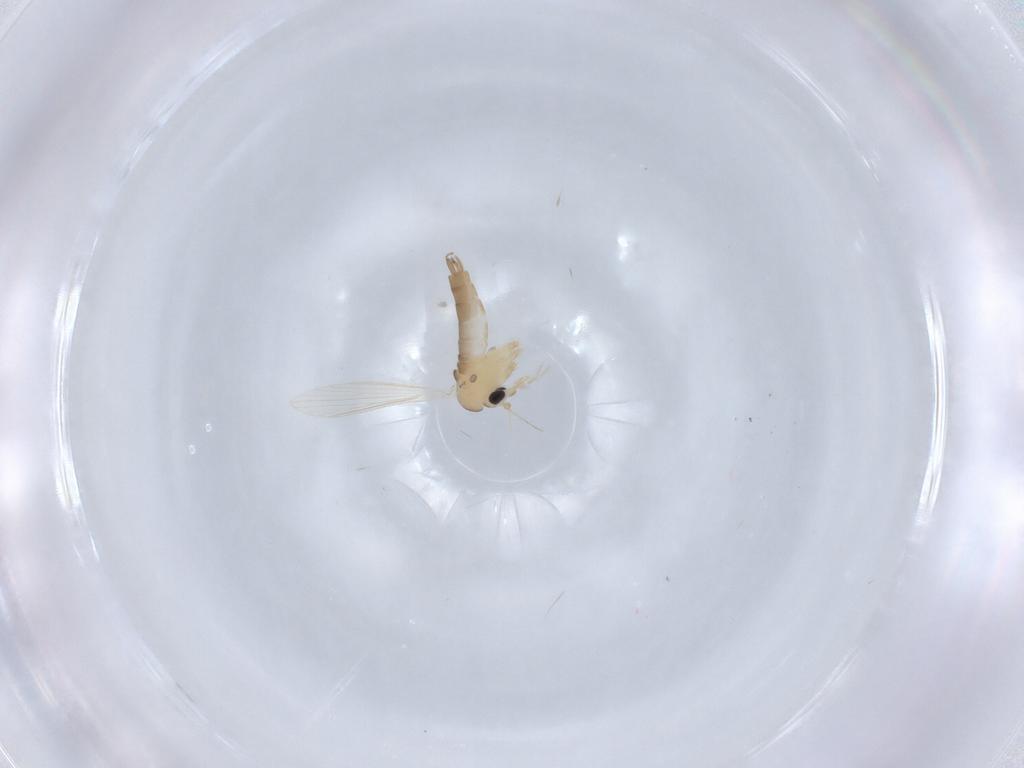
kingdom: Animalia
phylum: Arthropoda
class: Insecta
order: Diptera
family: Psychodidae
